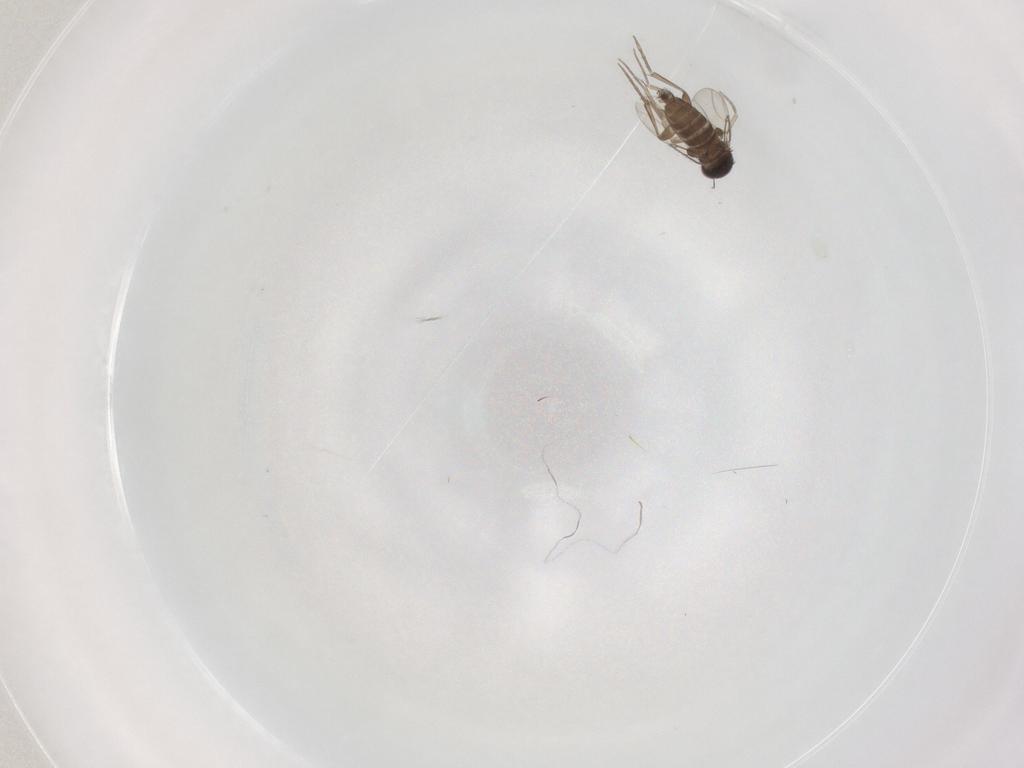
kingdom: Animalia
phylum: Arthropoda
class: Insecta
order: Diptera
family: Phoridae
